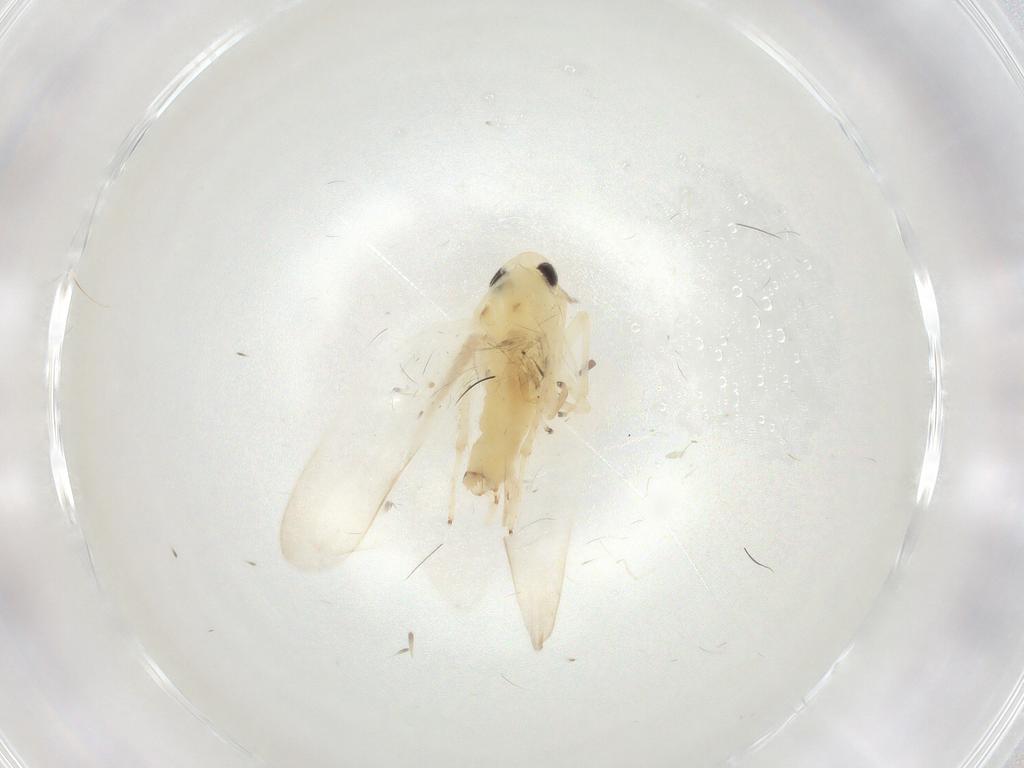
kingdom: Animalia
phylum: Arthropoda
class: Insecta
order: Hemiptera
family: Cicadellidae
